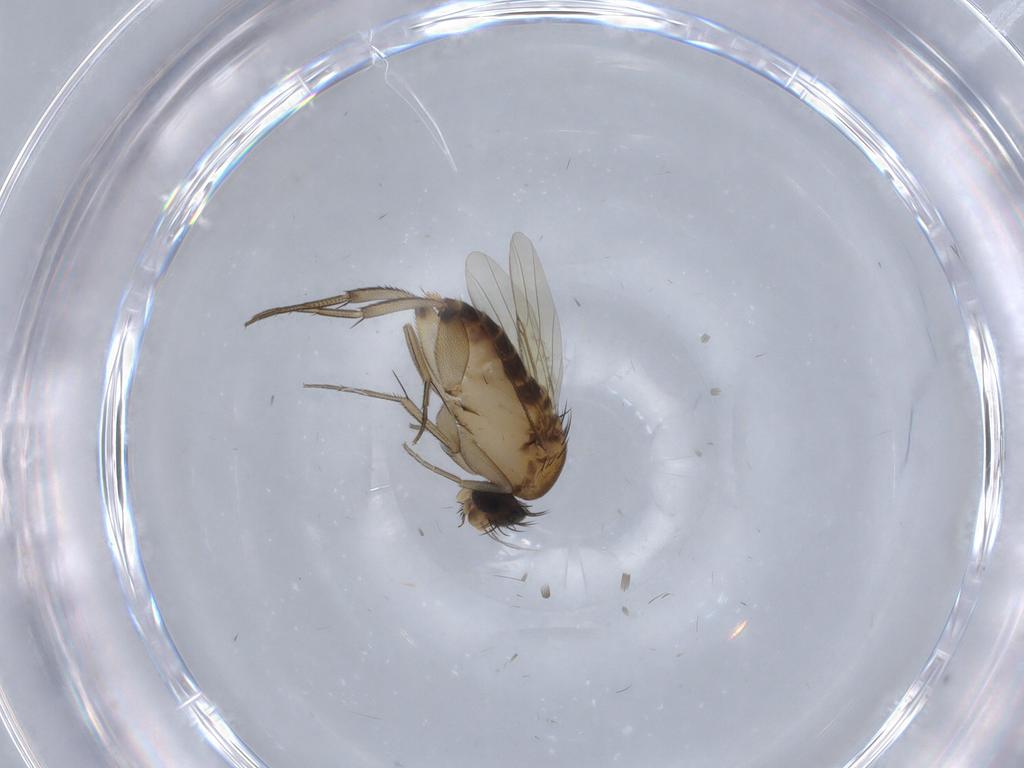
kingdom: Animalia
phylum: Arthropoda
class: Insecta
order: Diptera
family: Phoridae
